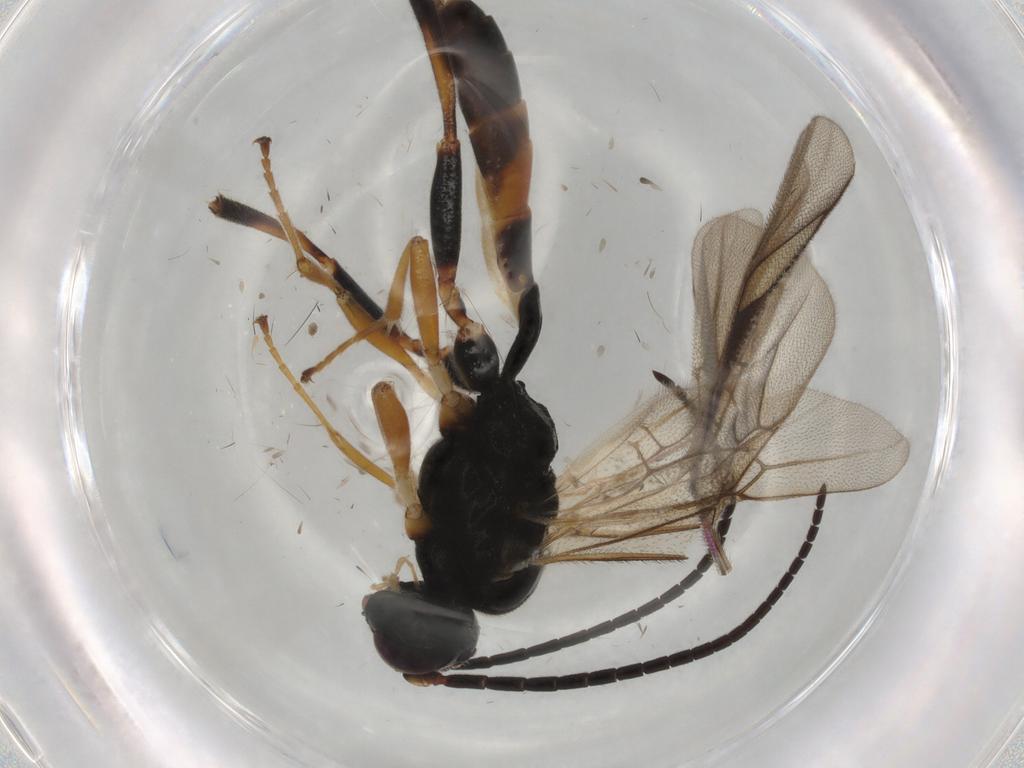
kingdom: Animalia
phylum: Arthropoda
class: Insecta
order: Hymenoptera
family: Ichneumonidae
